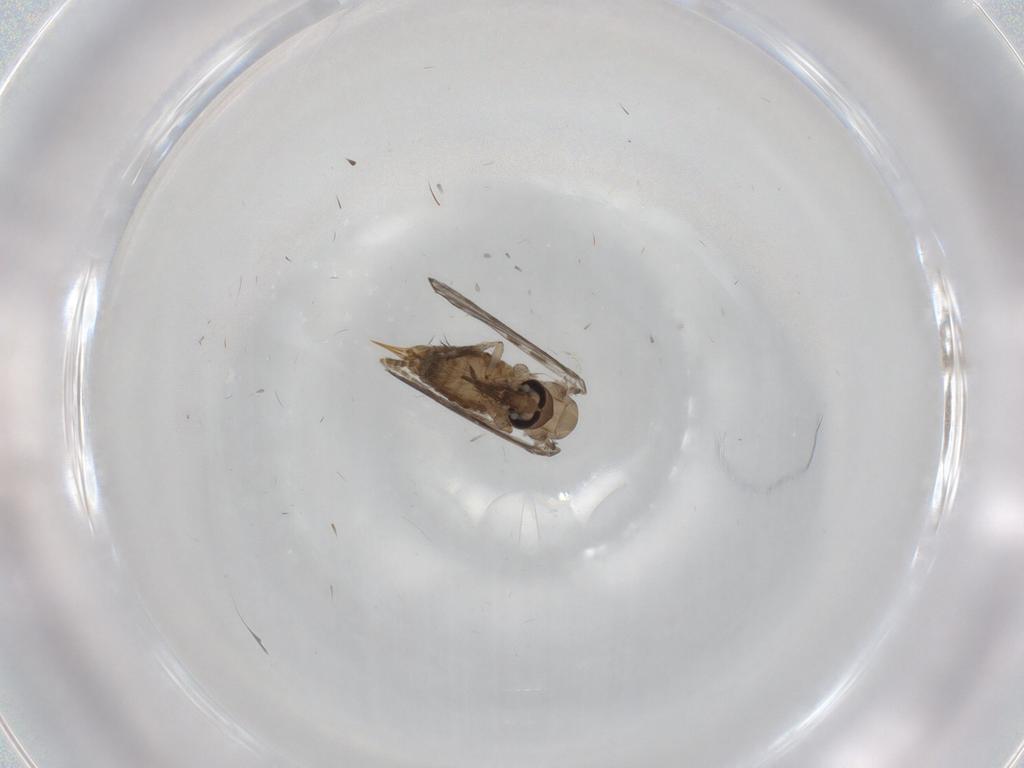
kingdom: Animalia
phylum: Arthropoda
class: Insecta
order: Diptera
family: Psychodidae
